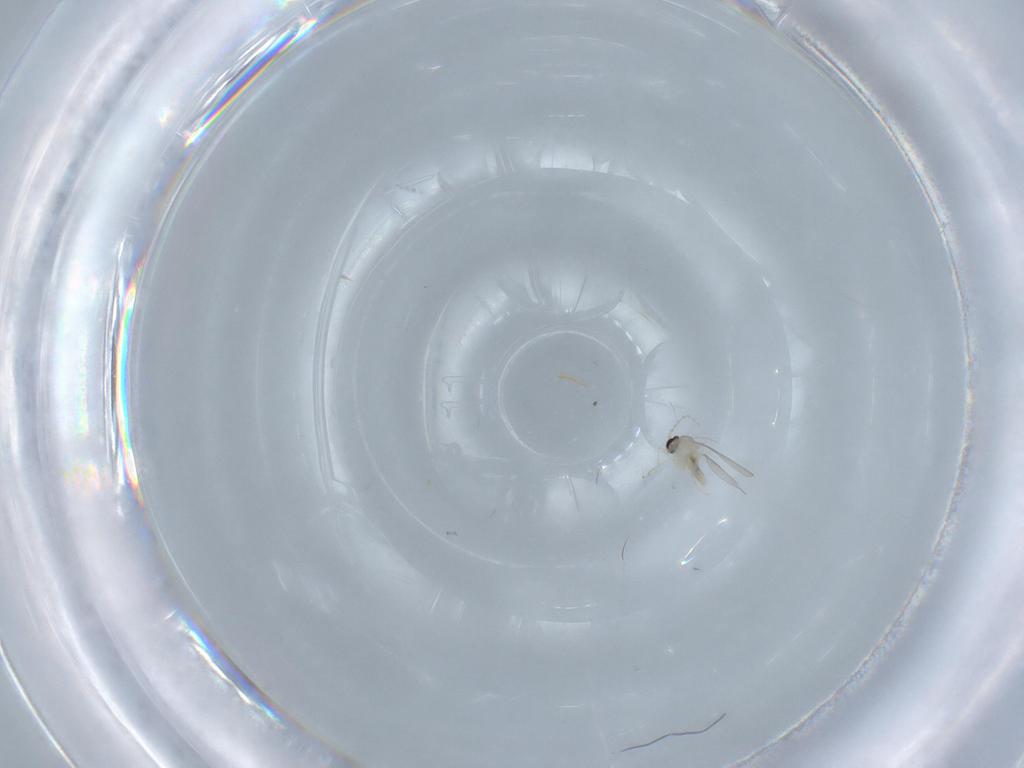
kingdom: Animalia
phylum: Arthropoda
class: Insecta
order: Diptera
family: Cecidomyiidae
